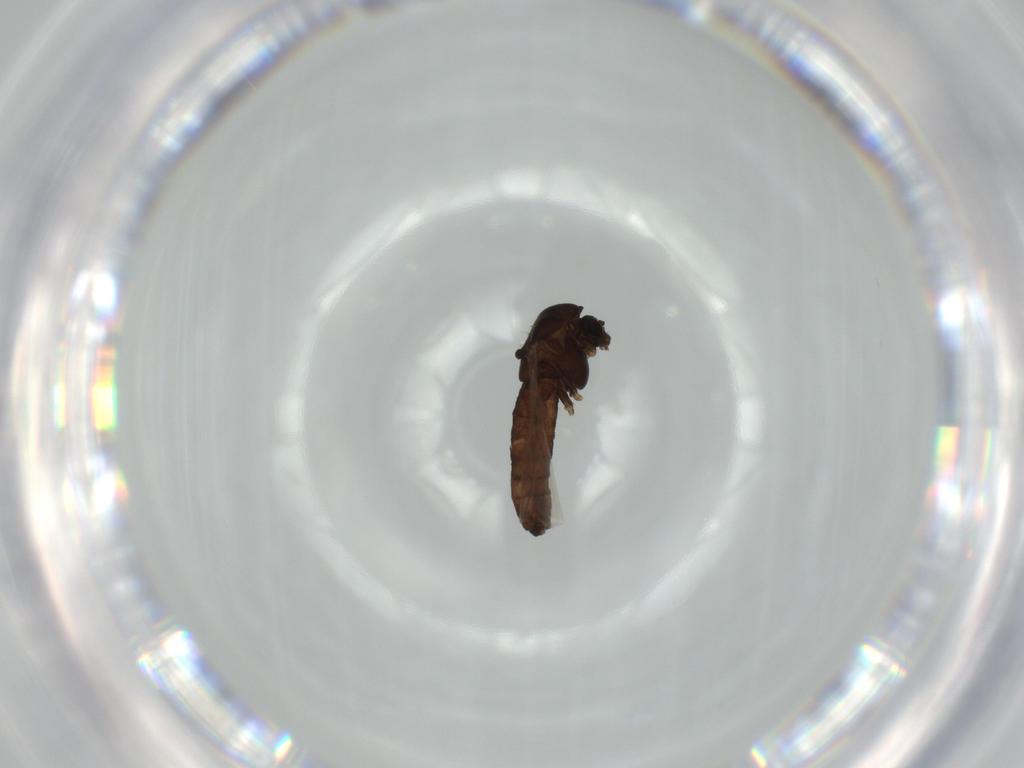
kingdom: Animalia
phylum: Arthropoda
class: Insecta
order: Diptera
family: Chironomidae
